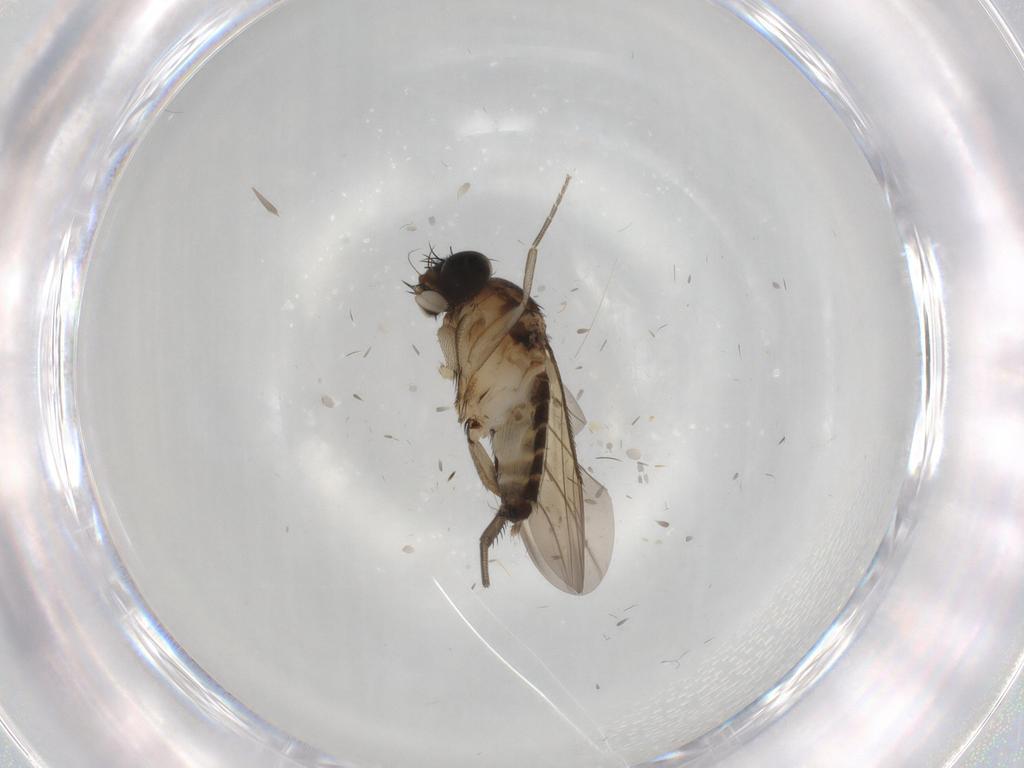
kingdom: Animalia
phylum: Arthropoda
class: Insecta
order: Diptera
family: Phoridae
